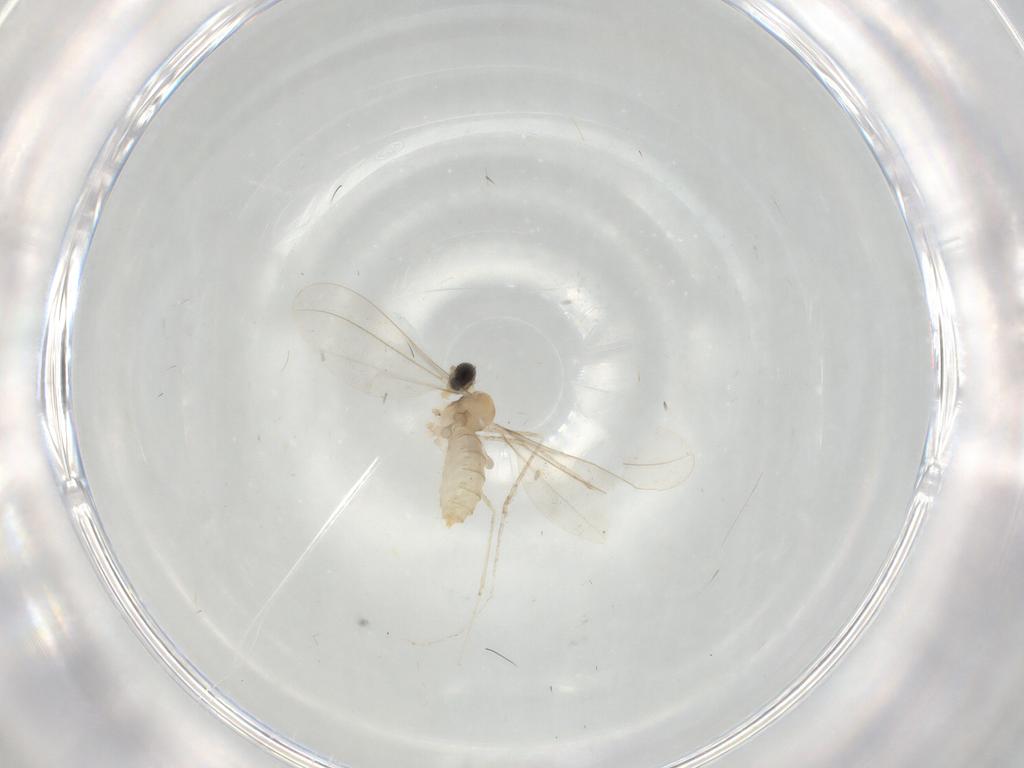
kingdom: Animalia
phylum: Arthropoda
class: Insecta
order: Diptera
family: Cecidomyiidae
